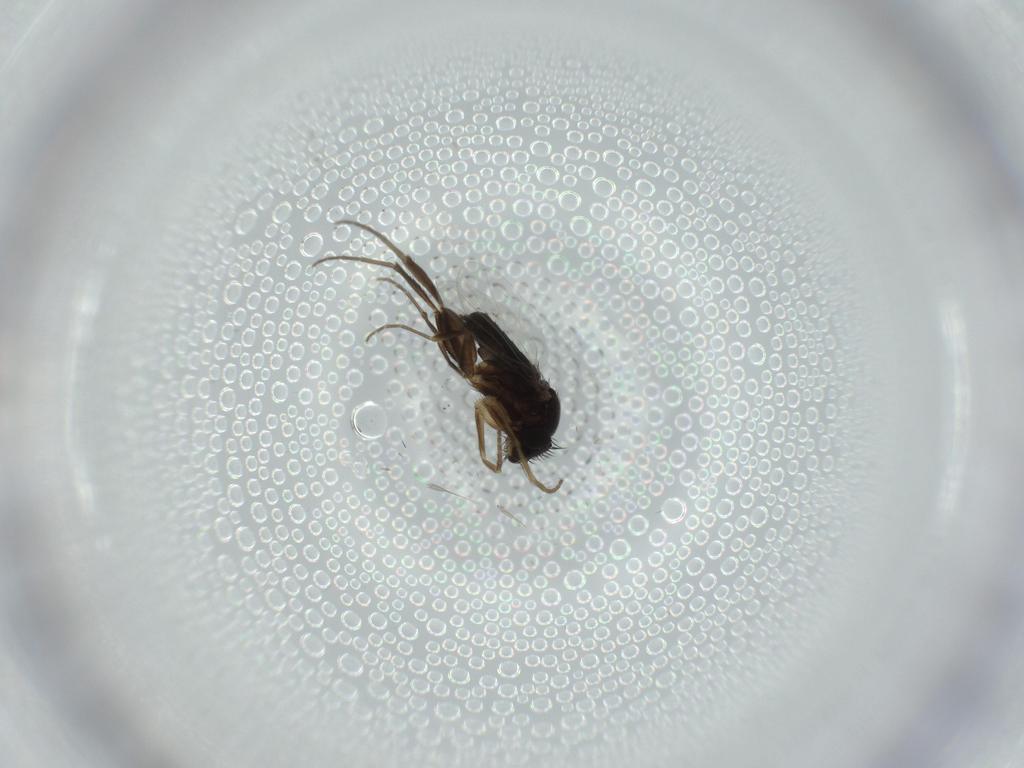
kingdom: Animalia
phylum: Arthropoda
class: Insecta
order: Diptera
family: Phoridae
